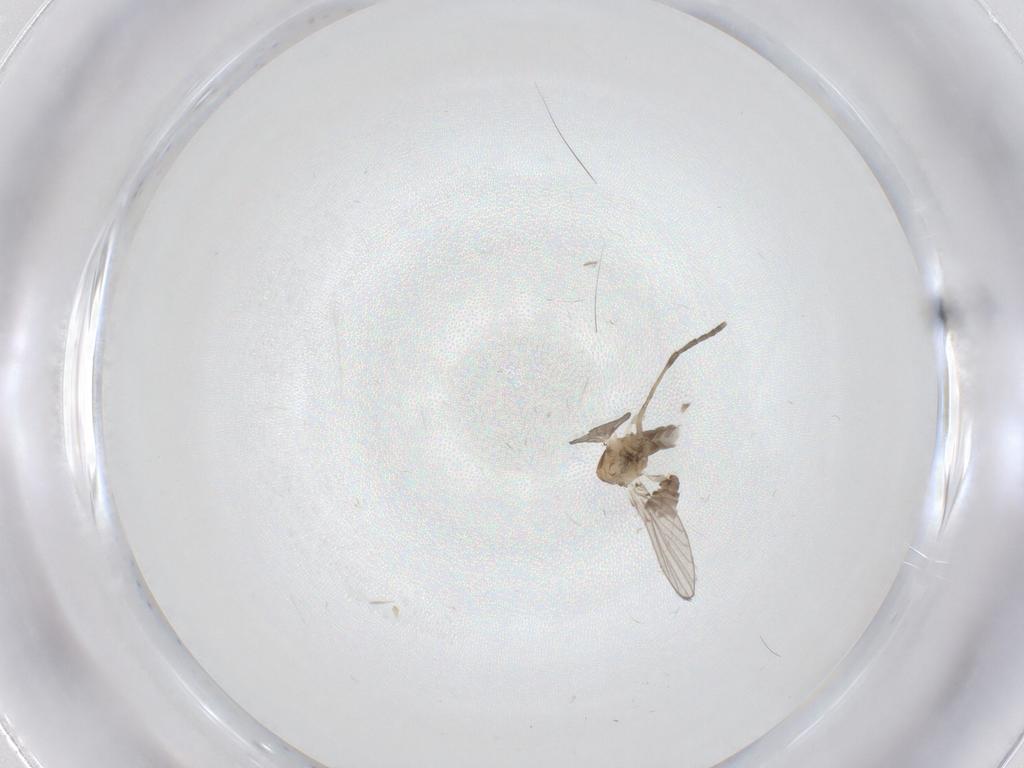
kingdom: Animalia
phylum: Arthropoda
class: Insecta
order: Diptera
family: Psychodidae
